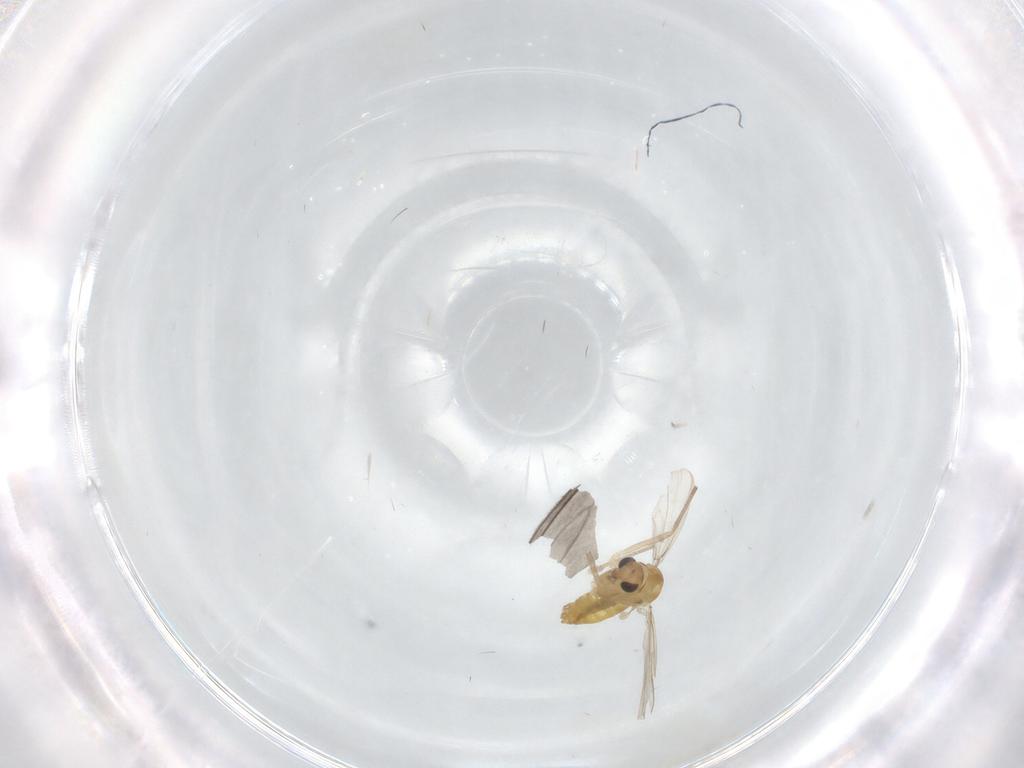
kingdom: Animalia
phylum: Arthropoda
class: Insecta
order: Diptera
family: Chironomidae
